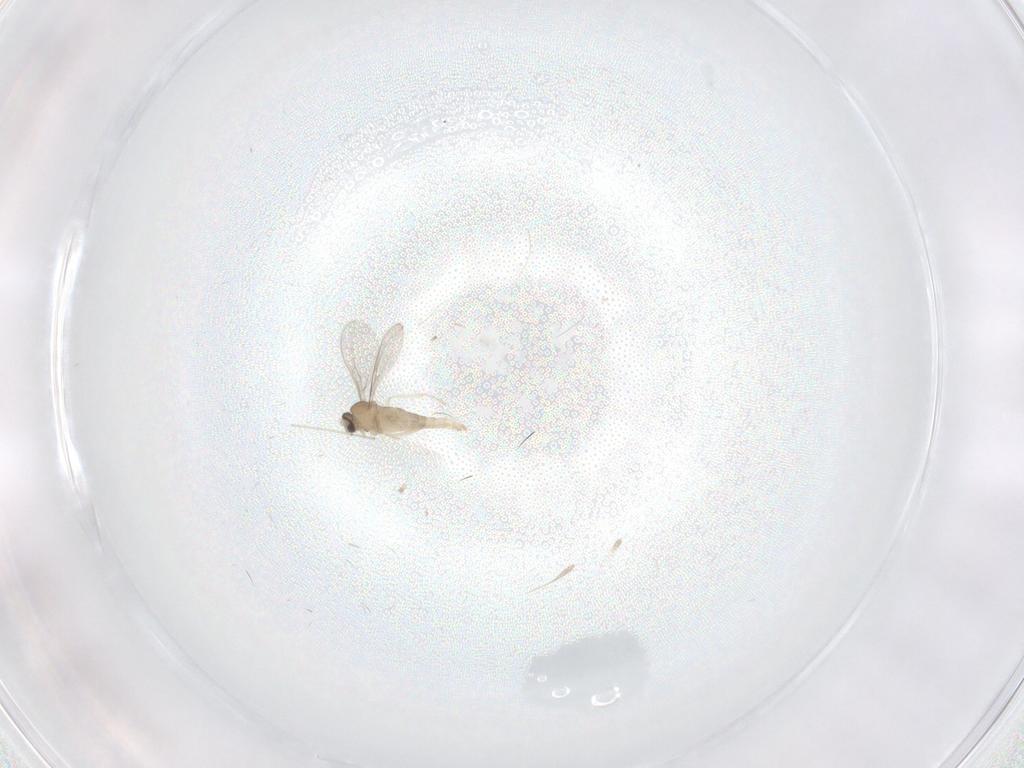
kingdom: Animalia
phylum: Arthropoda
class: Insecta
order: Diptera
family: Cecidomyiidae
